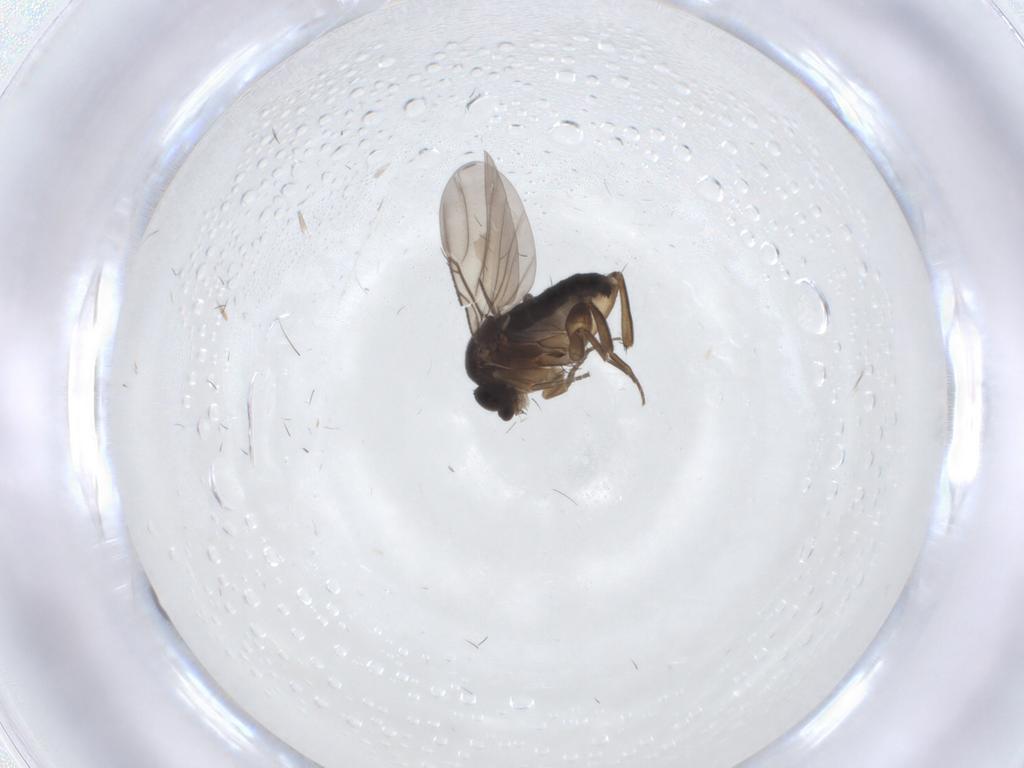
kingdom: Animalia
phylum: Arthropoda
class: Insecta
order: Diptera
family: Phoridae
